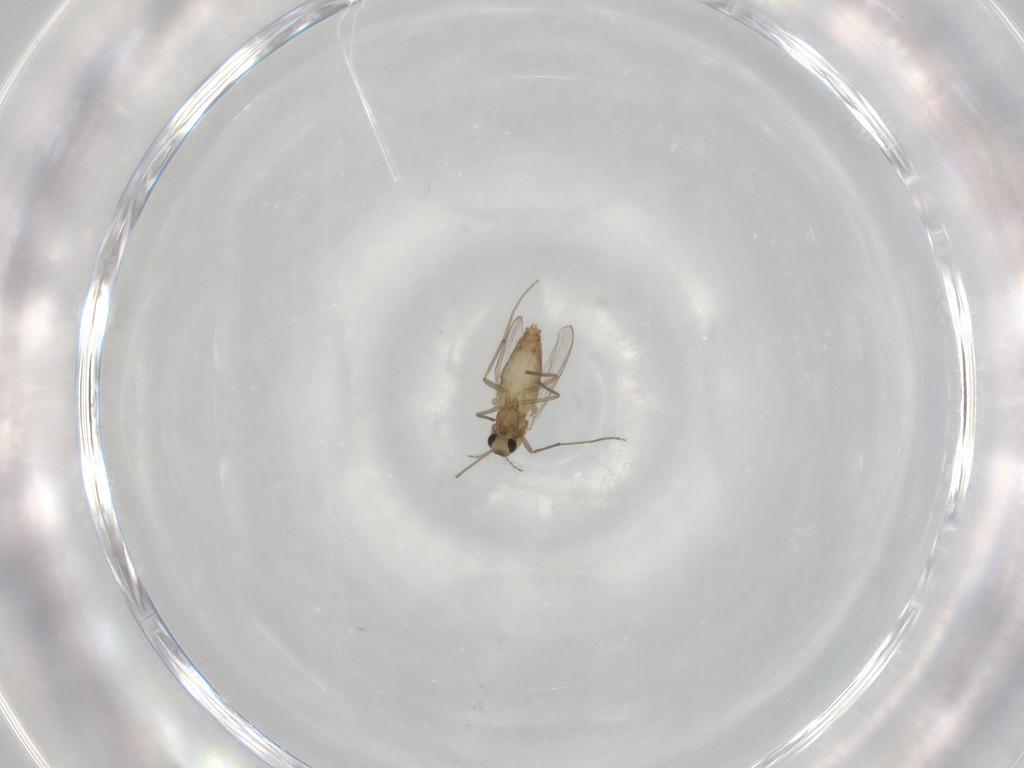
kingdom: Animalia
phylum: Arthropoda
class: Insecta
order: Diptera
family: Chironomidae
